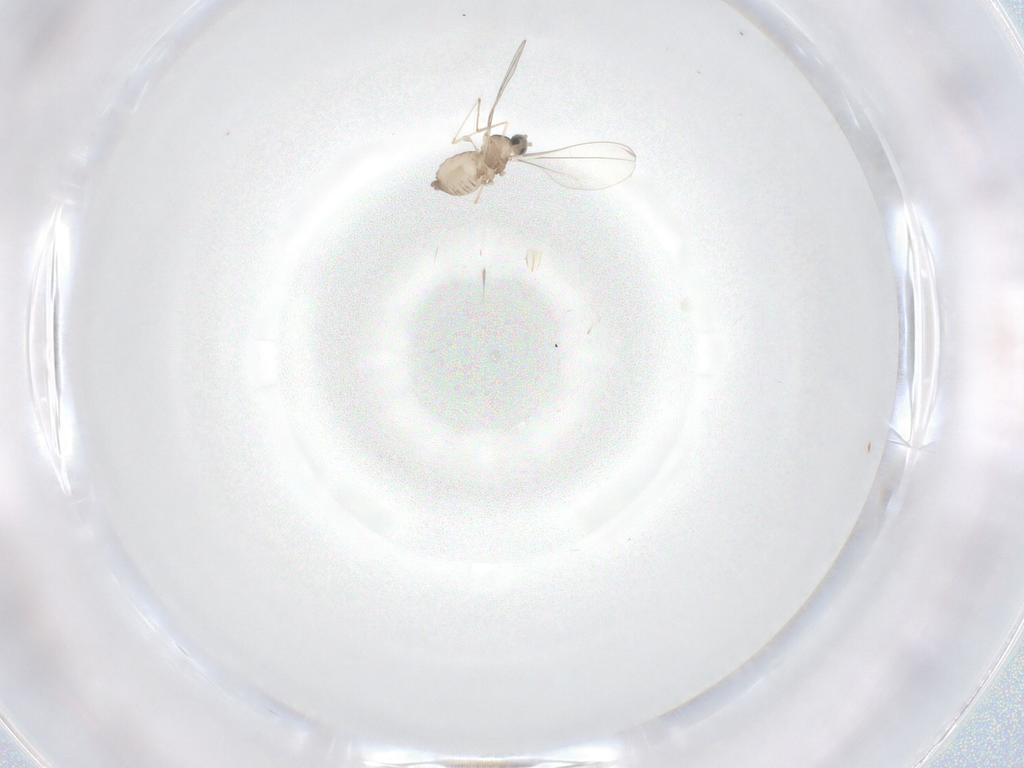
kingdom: Animalia
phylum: Arthropoda
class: Insecta
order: Diptera
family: Cecidomyiidae
